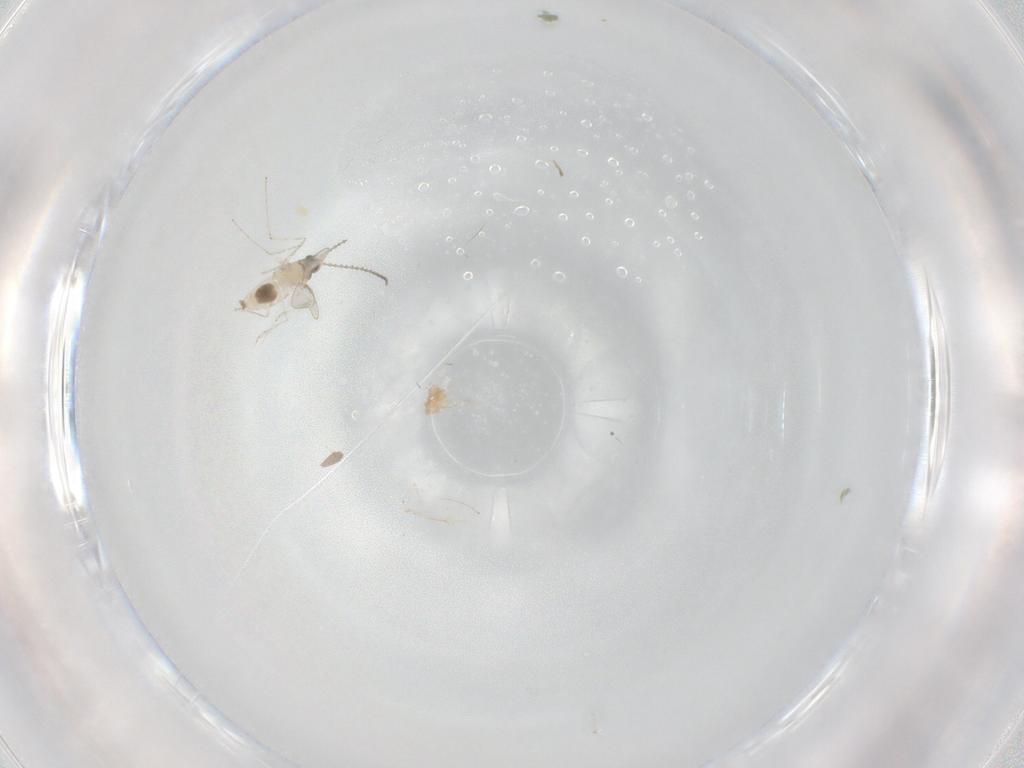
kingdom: Animalia
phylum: Arthropoda
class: Insecta
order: Diptera
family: Cecidomyiidae
